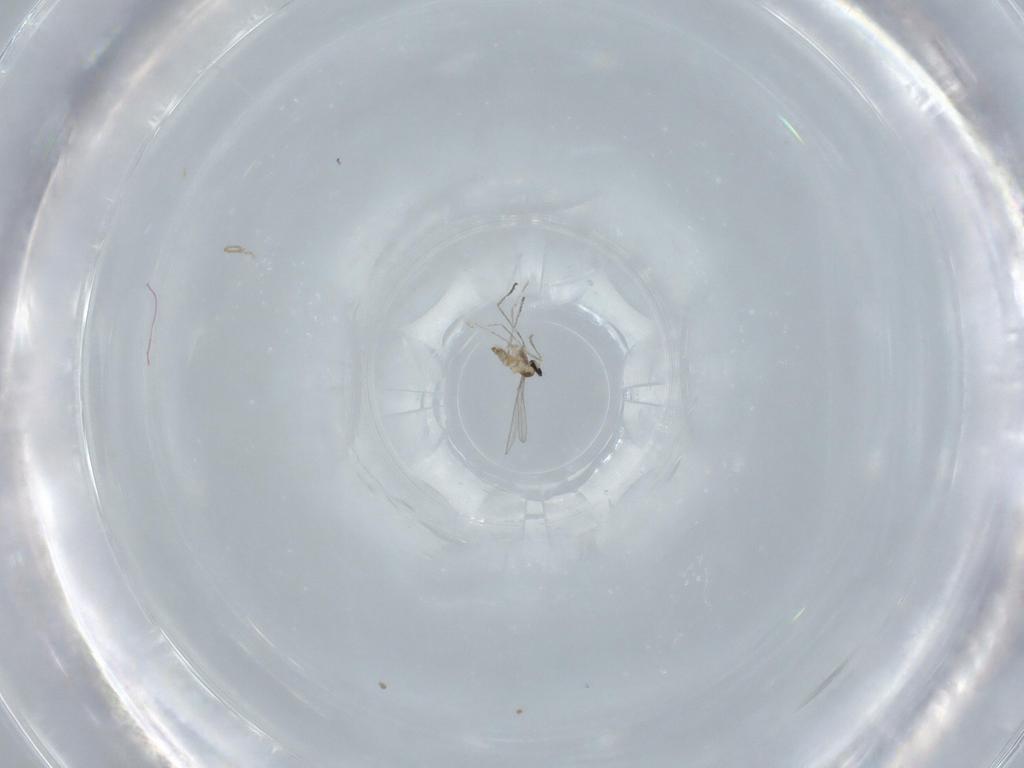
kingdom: Animalia
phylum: Arthropoda
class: Insecta
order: Diptera
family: Cecidomyiidae
